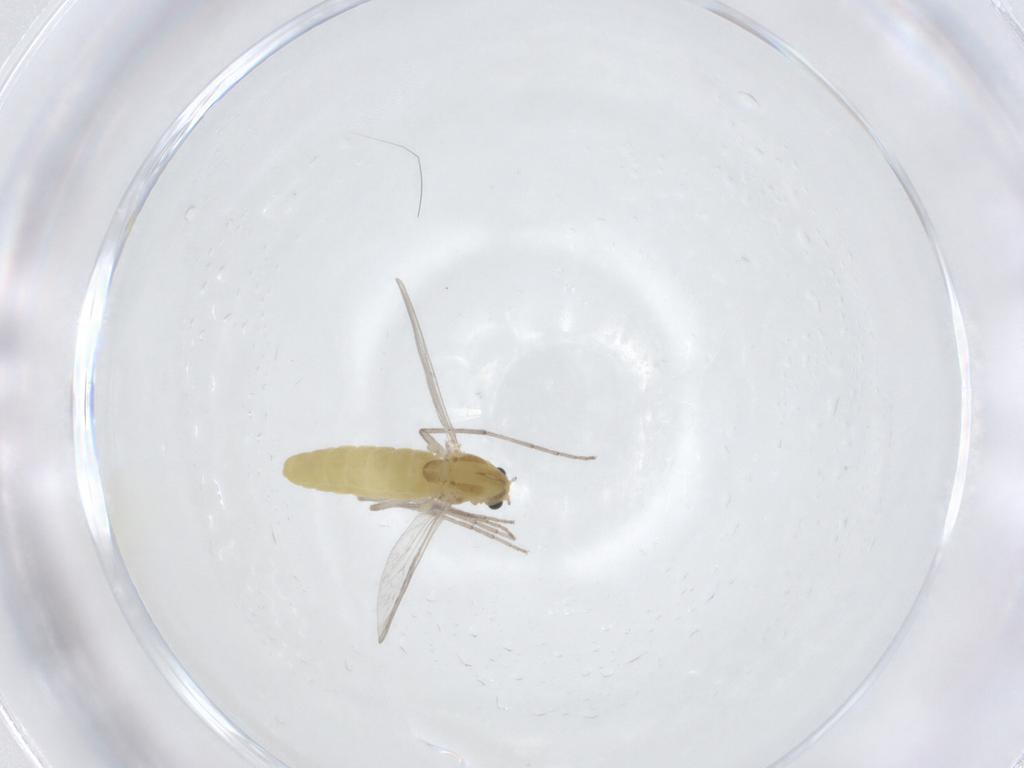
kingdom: Animalia
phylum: Arthropoda
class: Insecta
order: Diptera
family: Chironomidae
